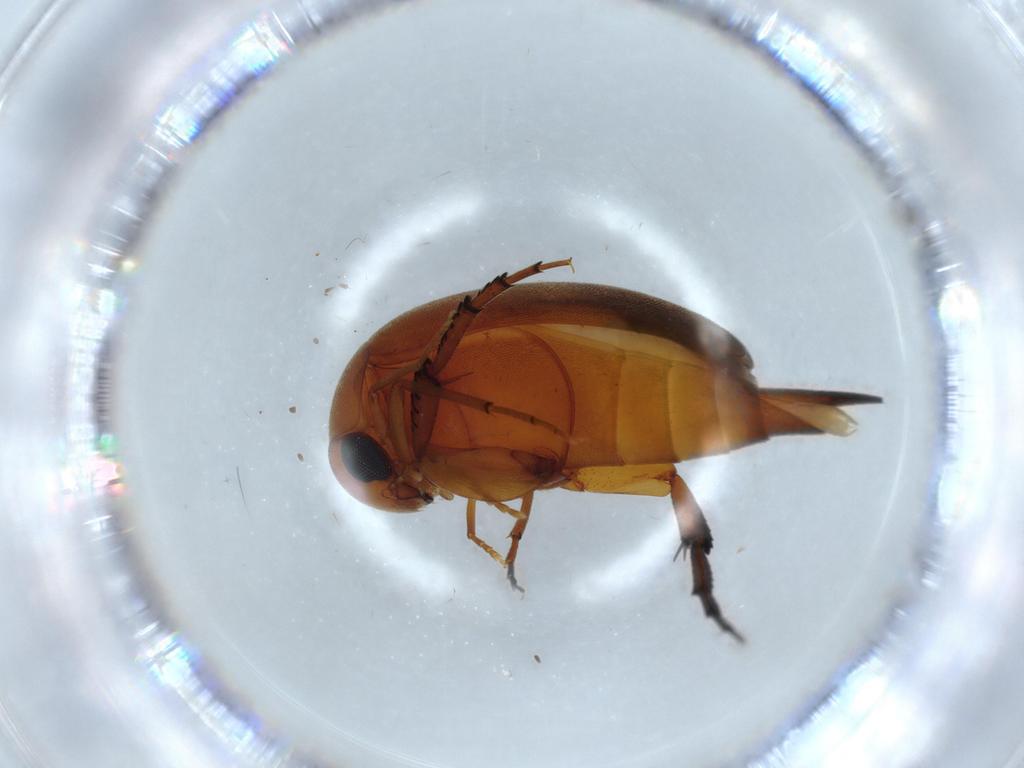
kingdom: Animalia
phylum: Arthropoda
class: Insecta
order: Coleoptera
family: Mordellidae
